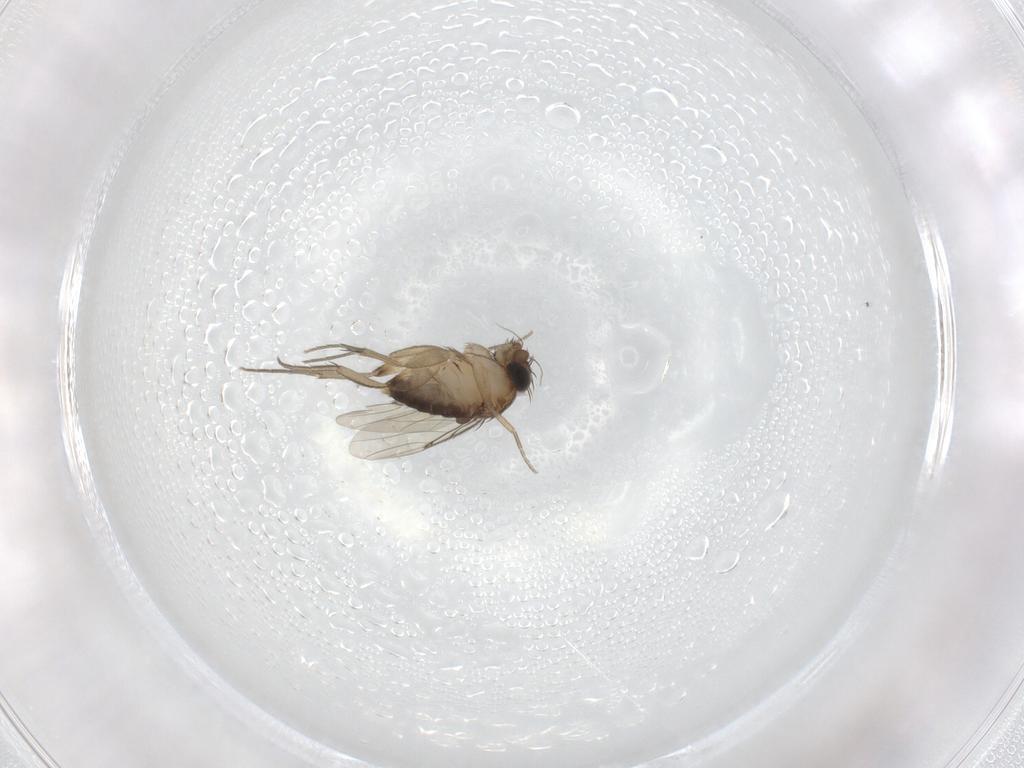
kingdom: Animalia
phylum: Arthropoda
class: Insecta
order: Diptera
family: Phoridae
